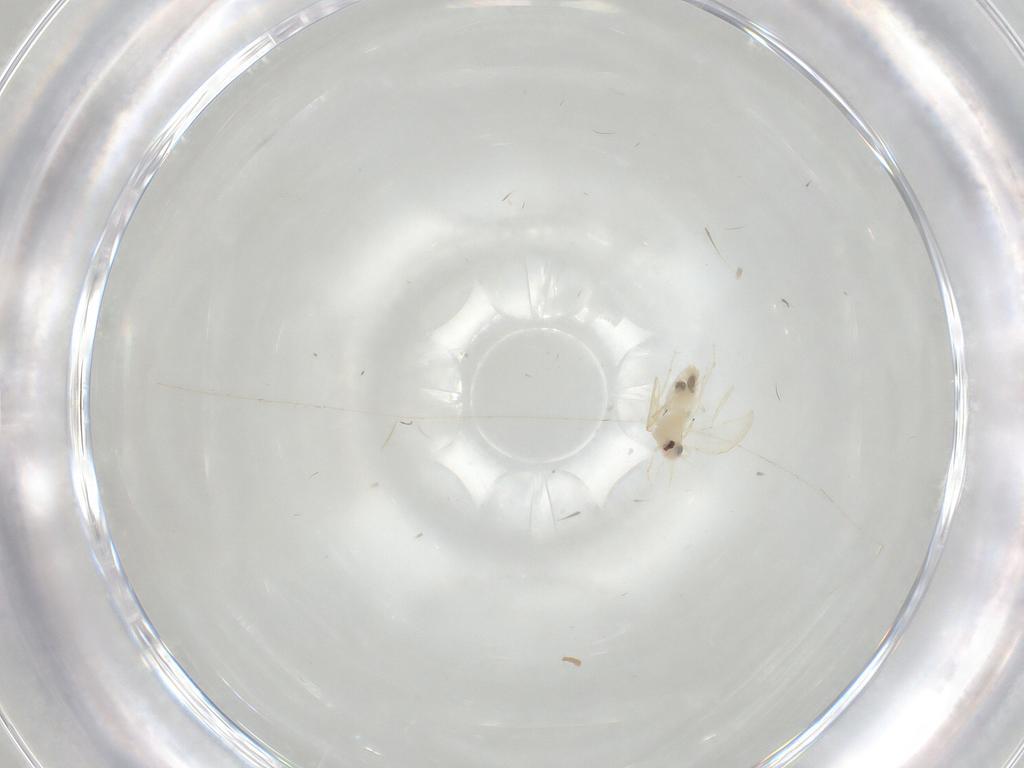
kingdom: Animalia
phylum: Arthropoda
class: Insecta
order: Hemiptera
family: Aleyrodidae
